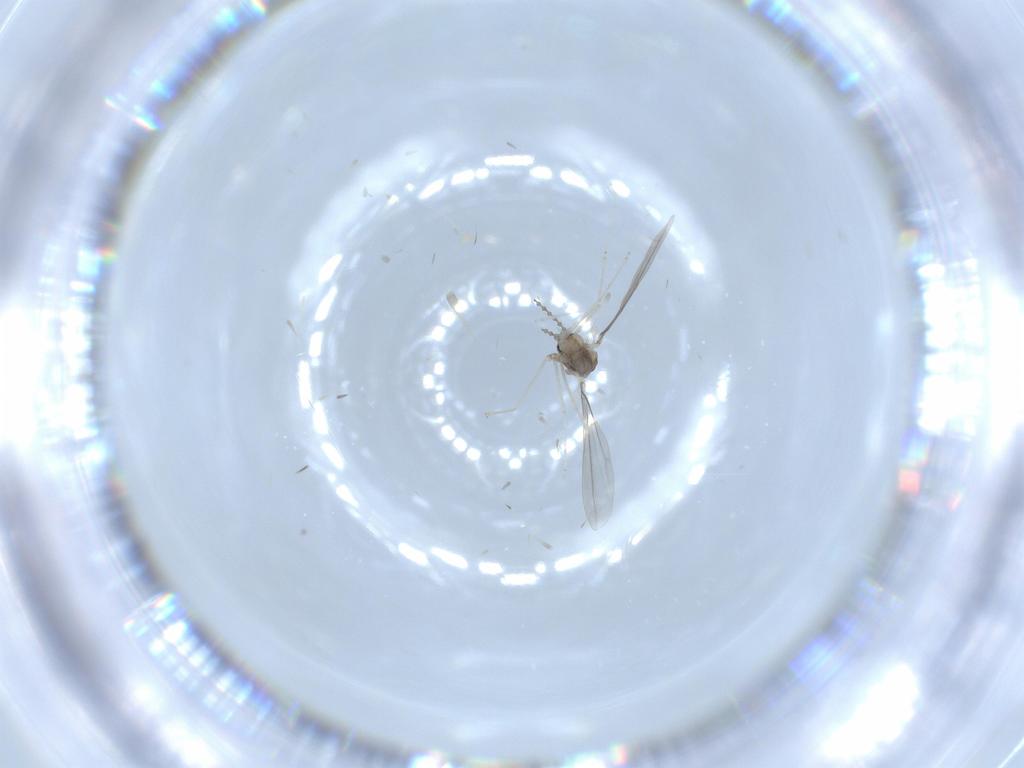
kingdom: Animalia
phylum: Arthropoda
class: Insecta
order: Diptera
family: Cecidomyiidae
